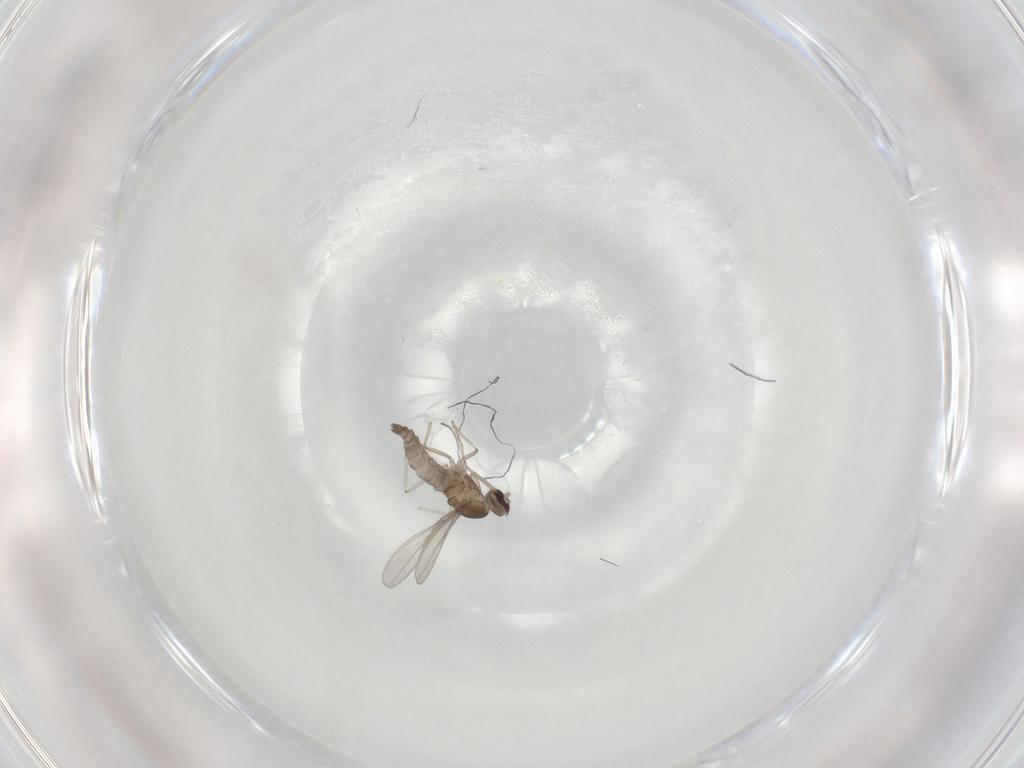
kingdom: Animalia
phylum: Arthropoda
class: Insecta
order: Diptera
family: Cecidomyiidae
